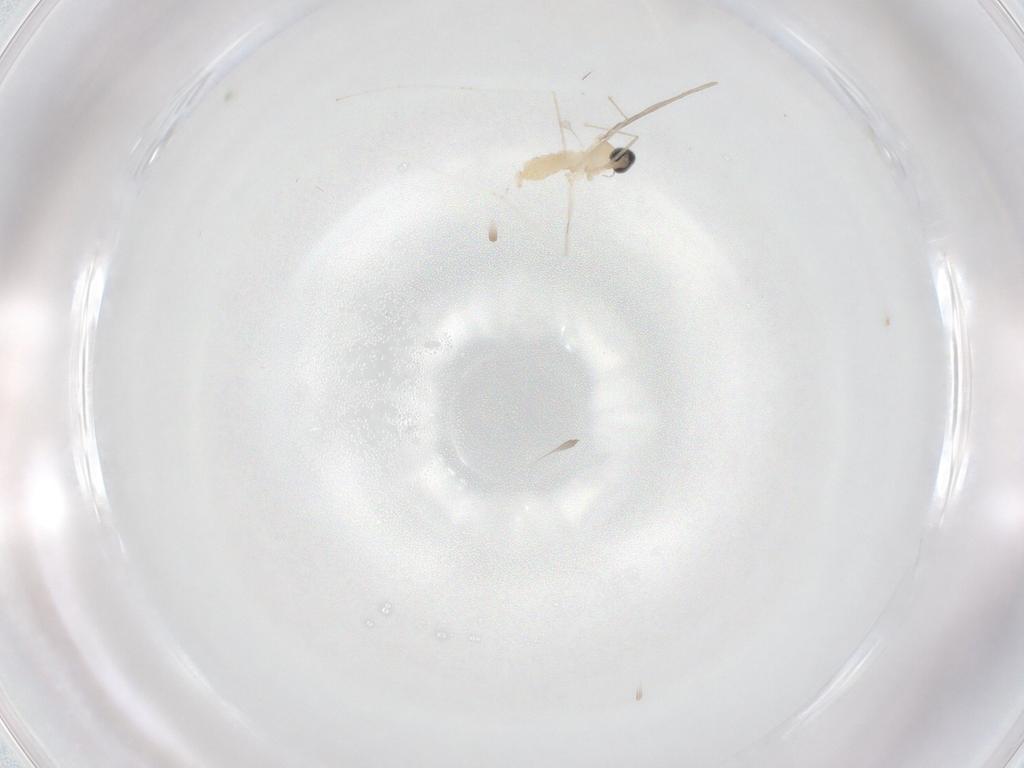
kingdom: Animalia
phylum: Arthropoda
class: Insecta
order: Diptera
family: Cecidomyiidae
